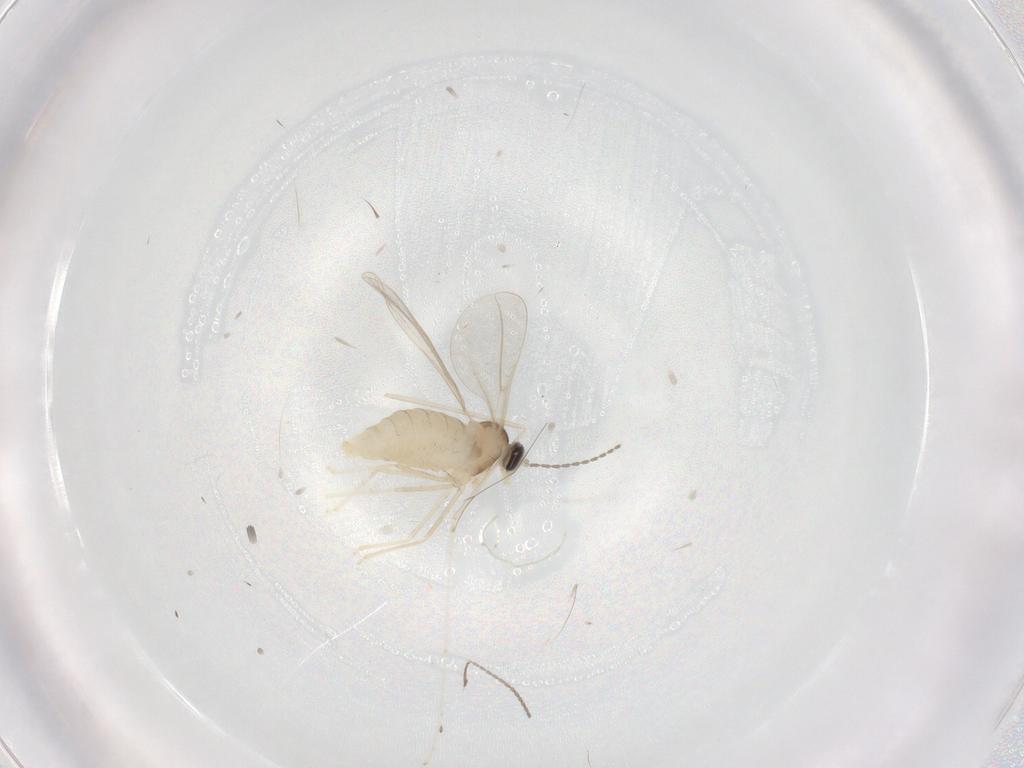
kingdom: Animalia
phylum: Arthropoda
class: Insecta
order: Diptera
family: Cecidomyiidae
